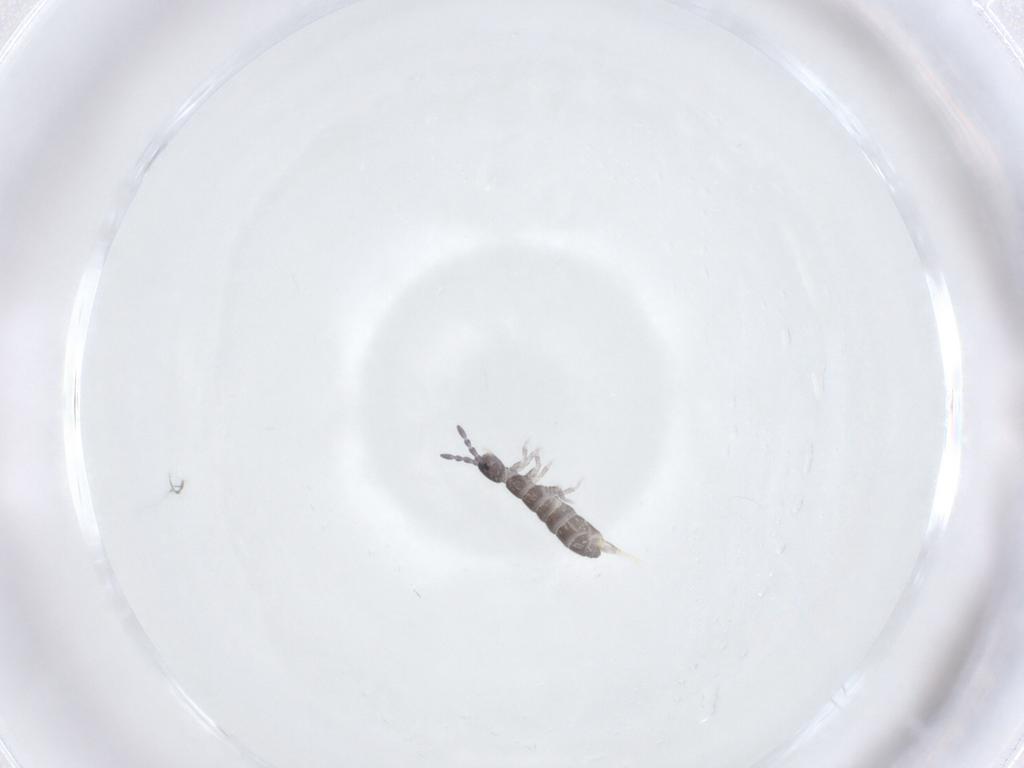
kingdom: Animalia
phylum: Arthropoda
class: Collembola
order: Entomobryomorpha
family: Isotomidae
